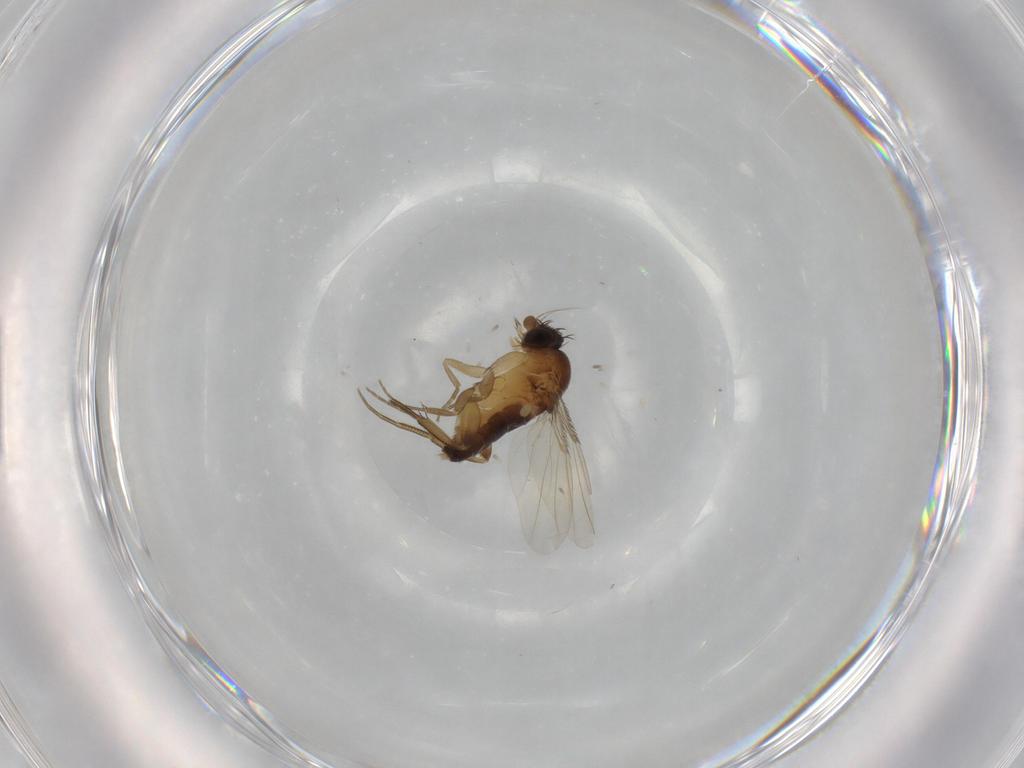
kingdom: Animalia
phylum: Arthropoda
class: Insecta
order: Diptera
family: Phoridae
